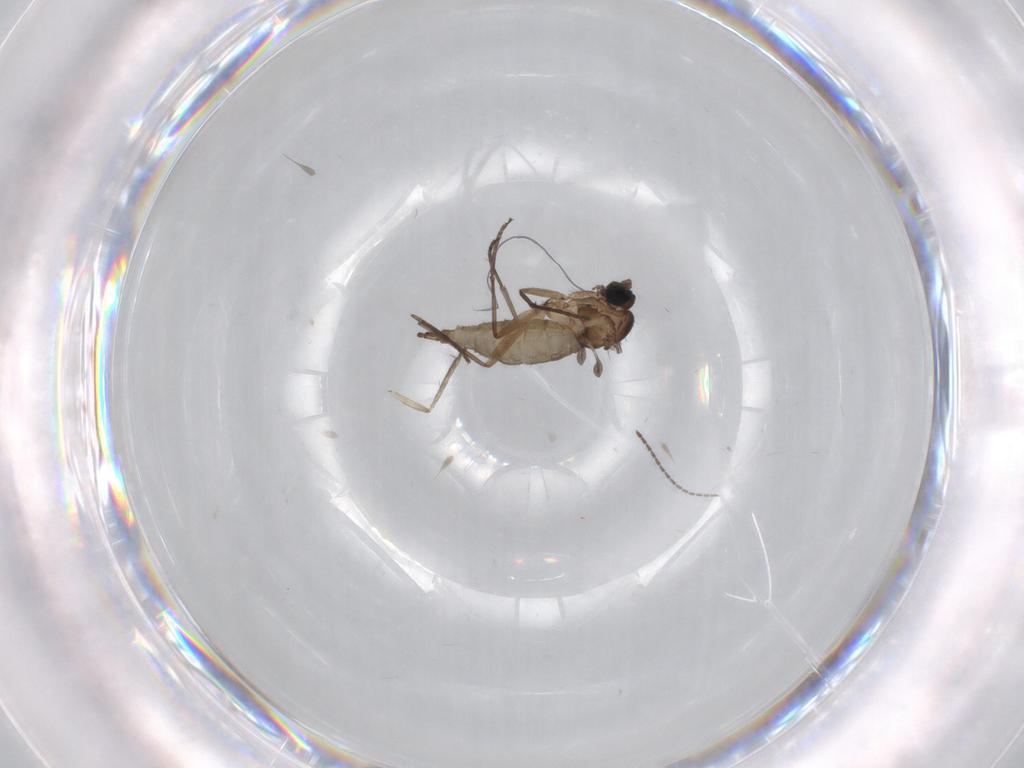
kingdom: Animalia
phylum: Arthropoda
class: Insecta
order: Diptera
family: Sciaridae
